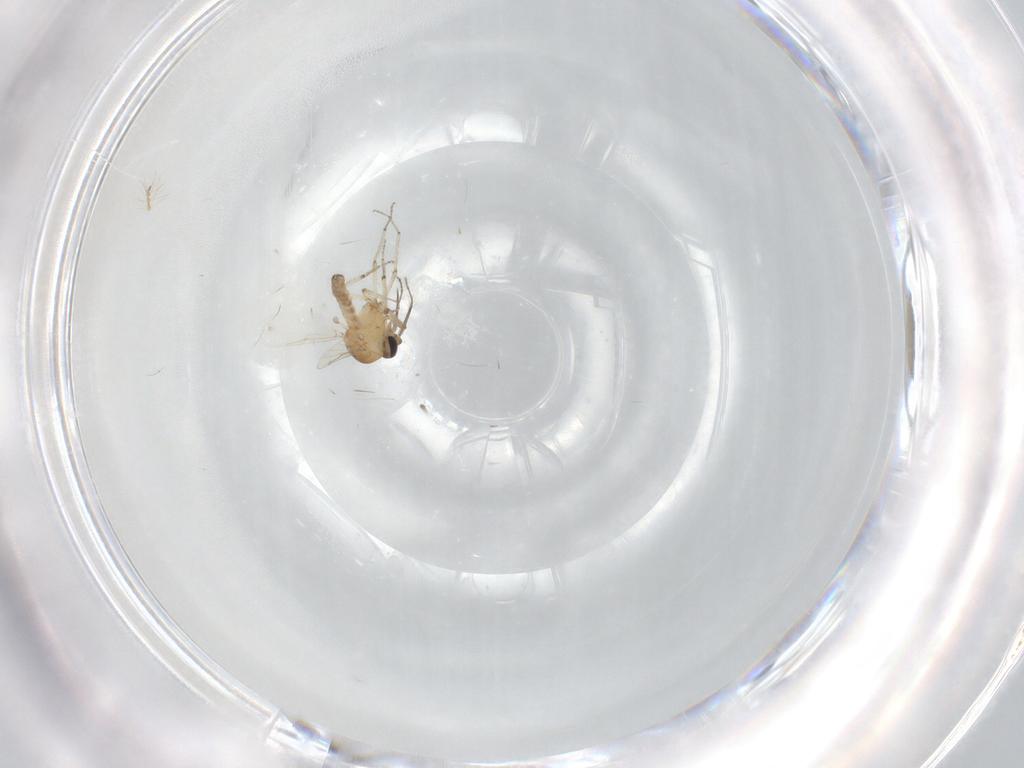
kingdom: Animalia
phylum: Arthropoda
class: Insecta
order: Diptera
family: Ceratopogonidae
